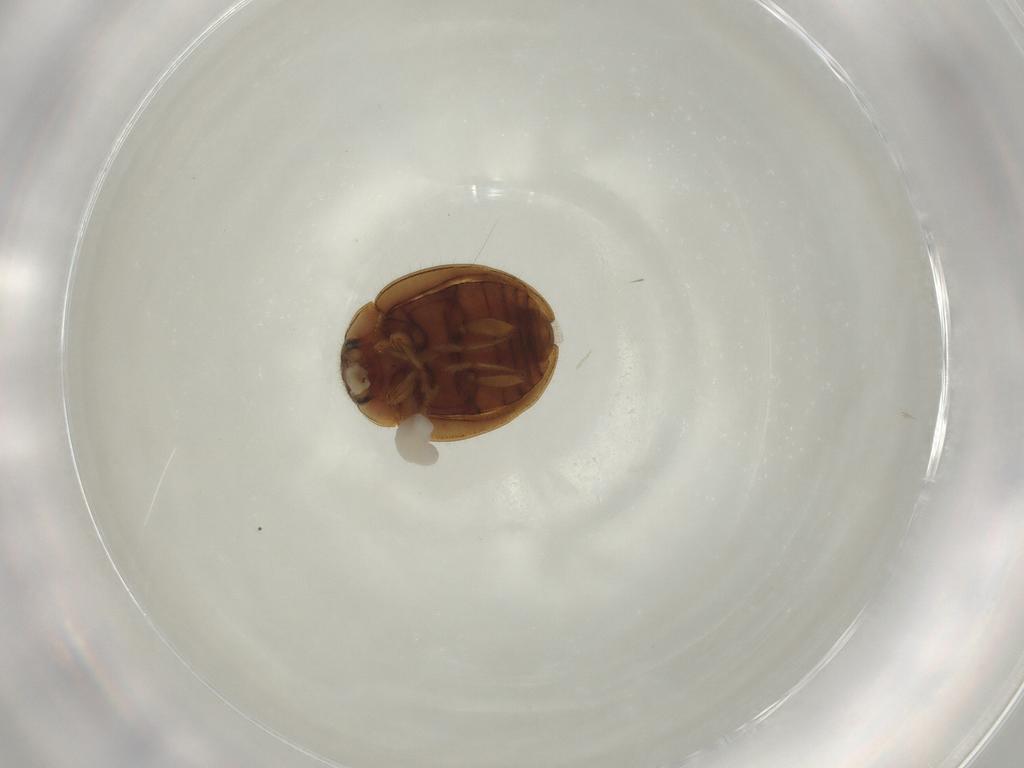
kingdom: Animalia
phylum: Arthropoda
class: Insecta
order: Coleoptera
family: Coccinellidae
